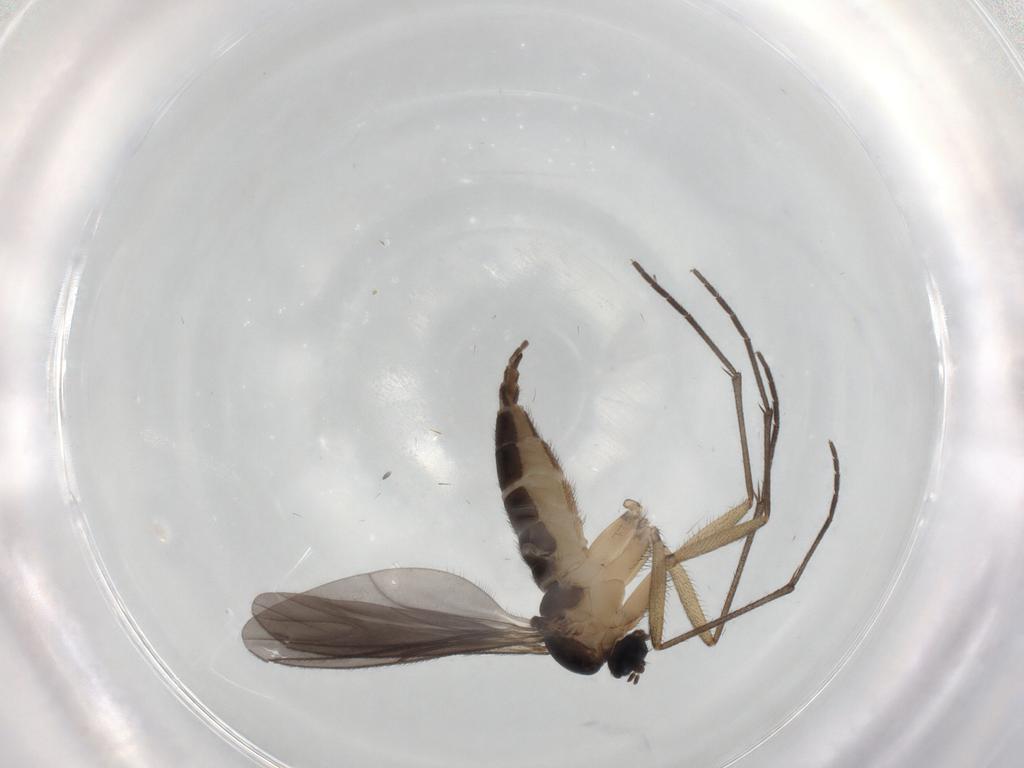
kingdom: Animalia
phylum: Arthropoda
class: Insecta
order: Diptera
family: Sciaridae
